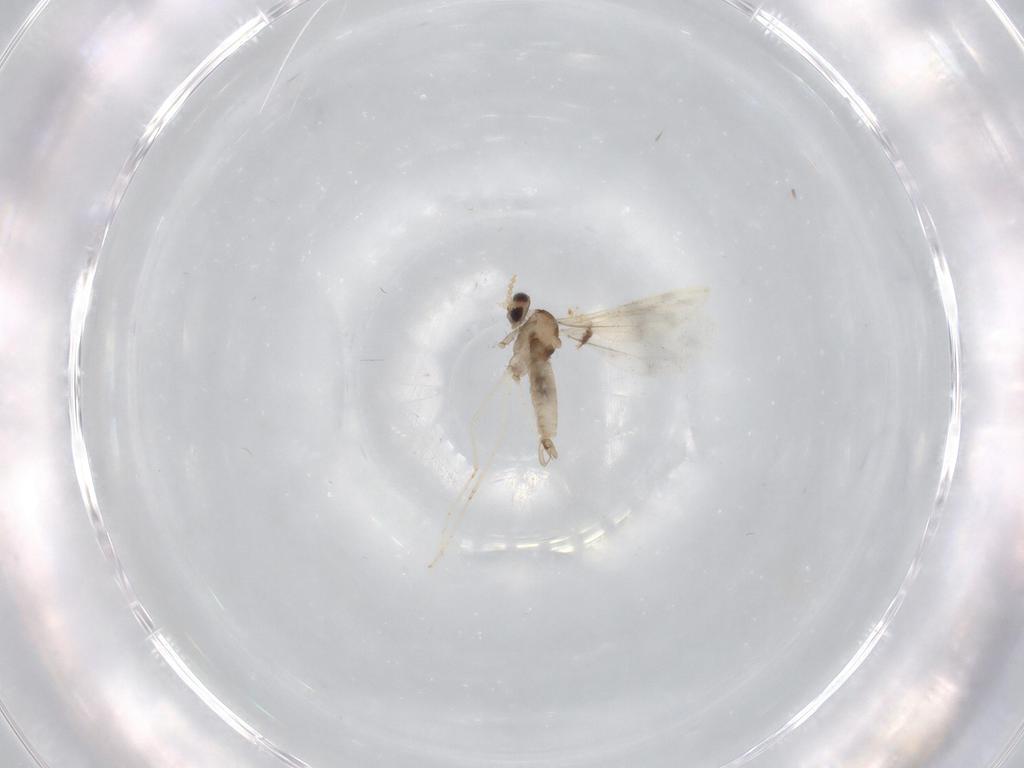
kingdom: Animalia
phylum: Arthropoda
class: Insecta
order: Diptera
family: Cecidomyiidae
